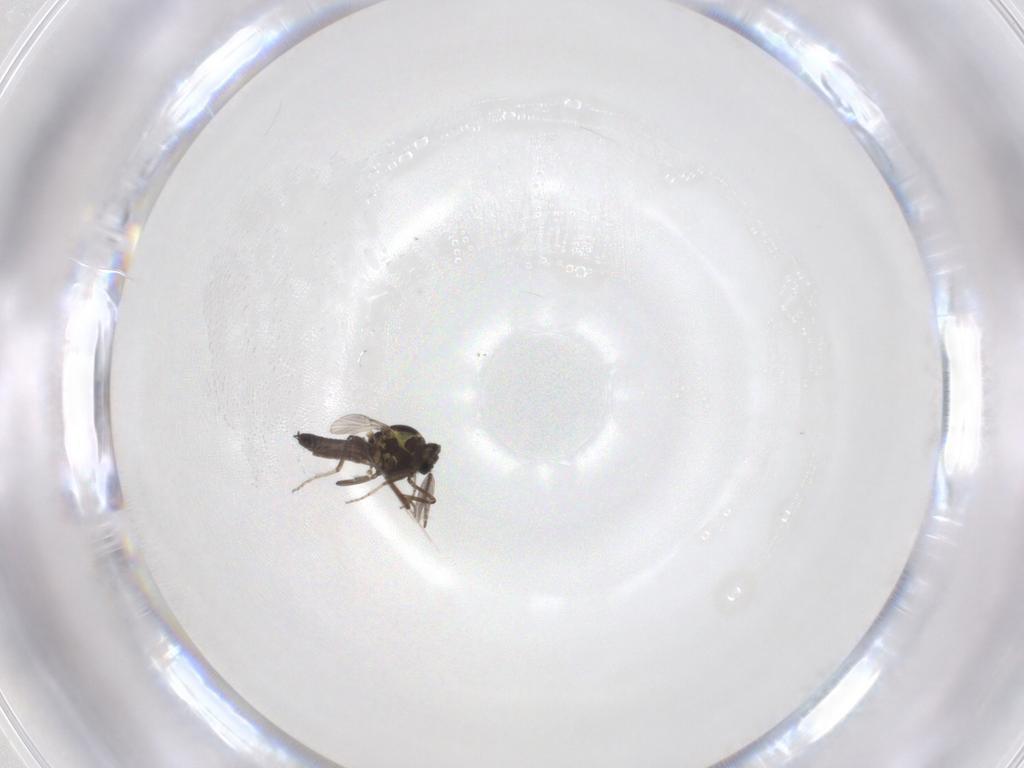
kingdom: Animalia
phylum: Arthropoda
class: Insecta
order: Diptera
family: Ceratopogonidae
